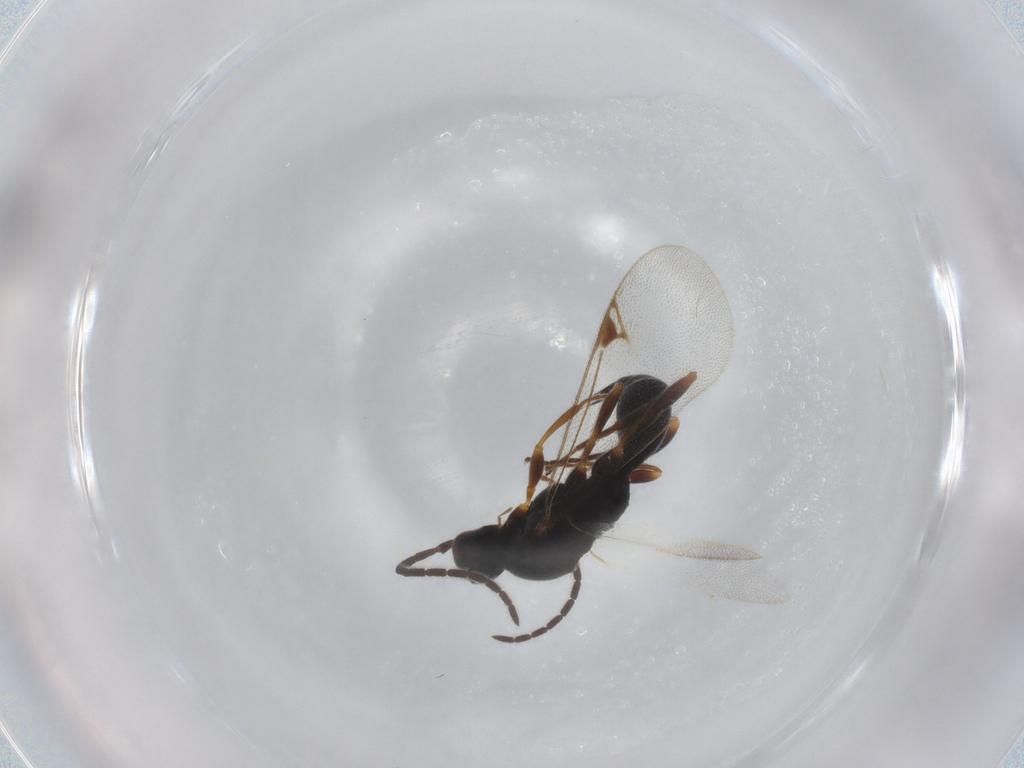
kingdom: Animalia
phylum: Arthropoda
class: Insecta
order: Hymenoptera
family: Proctotrupidae
